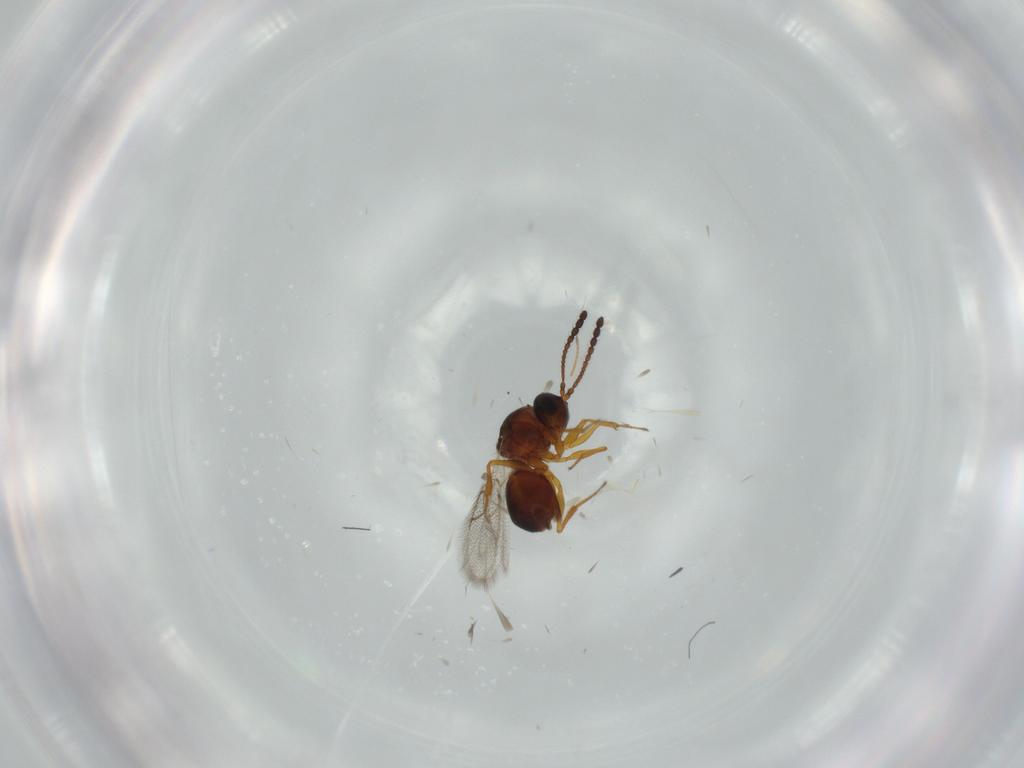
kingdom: Animalia
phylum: Arthropoda
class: Insecta
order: Hymenoptera
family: Figitidae
